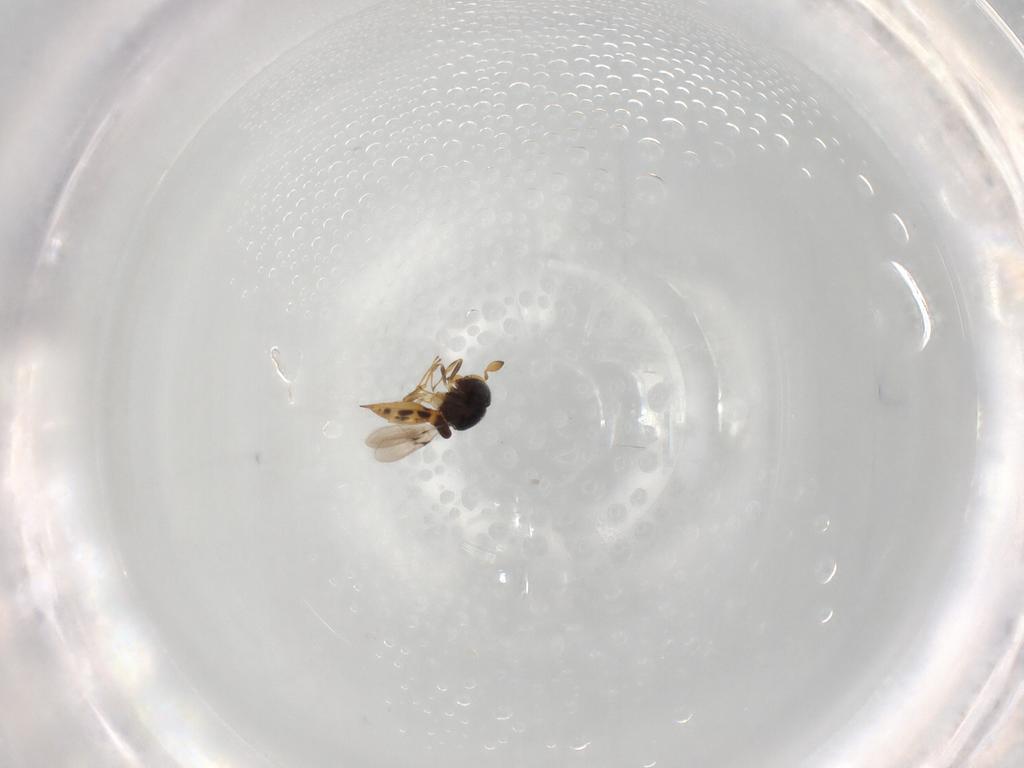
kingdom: Animalia
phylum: Arthropoda
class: Insecta
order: Hymenoptera
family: Scelionidae
